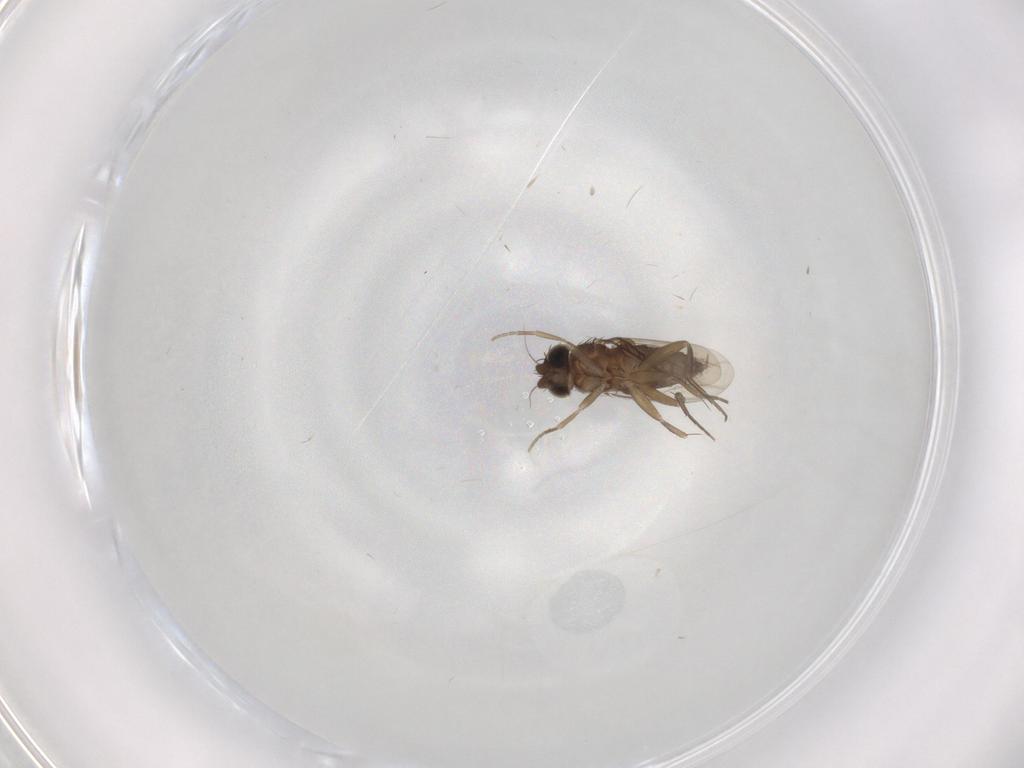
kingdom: Animalia
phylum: Arthropoda
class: Insecta
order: Diptera
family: Phoridae
